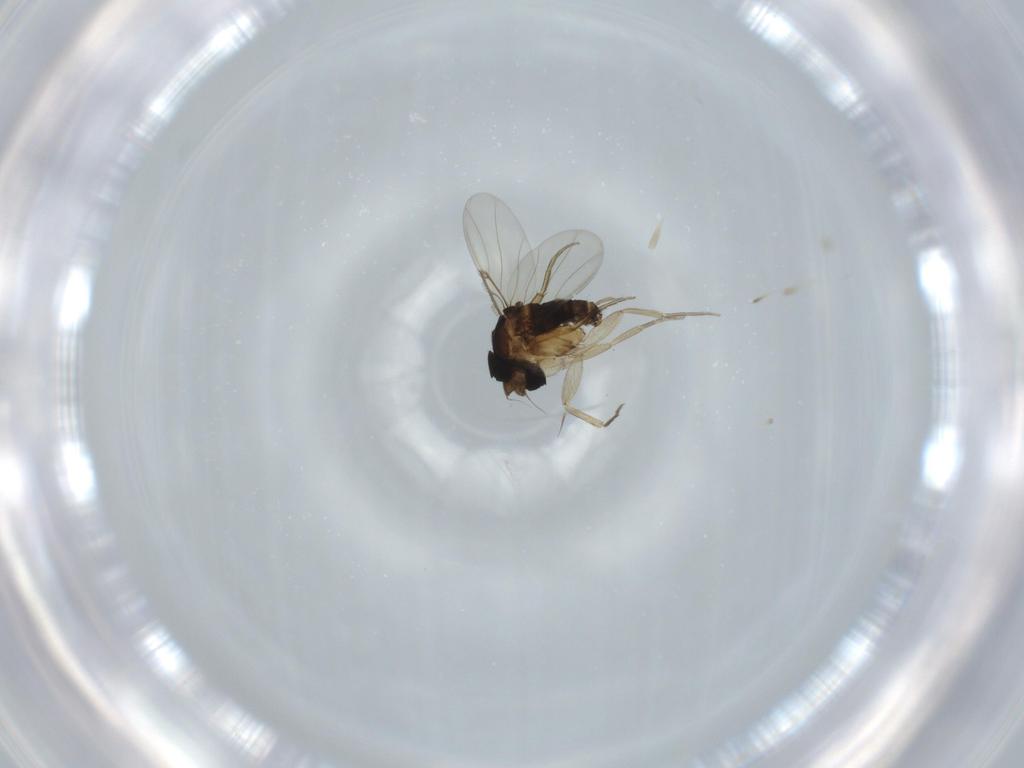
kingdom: Animalia
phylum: Arthropoda
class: Insecta
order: Diptera
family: Phoridae
